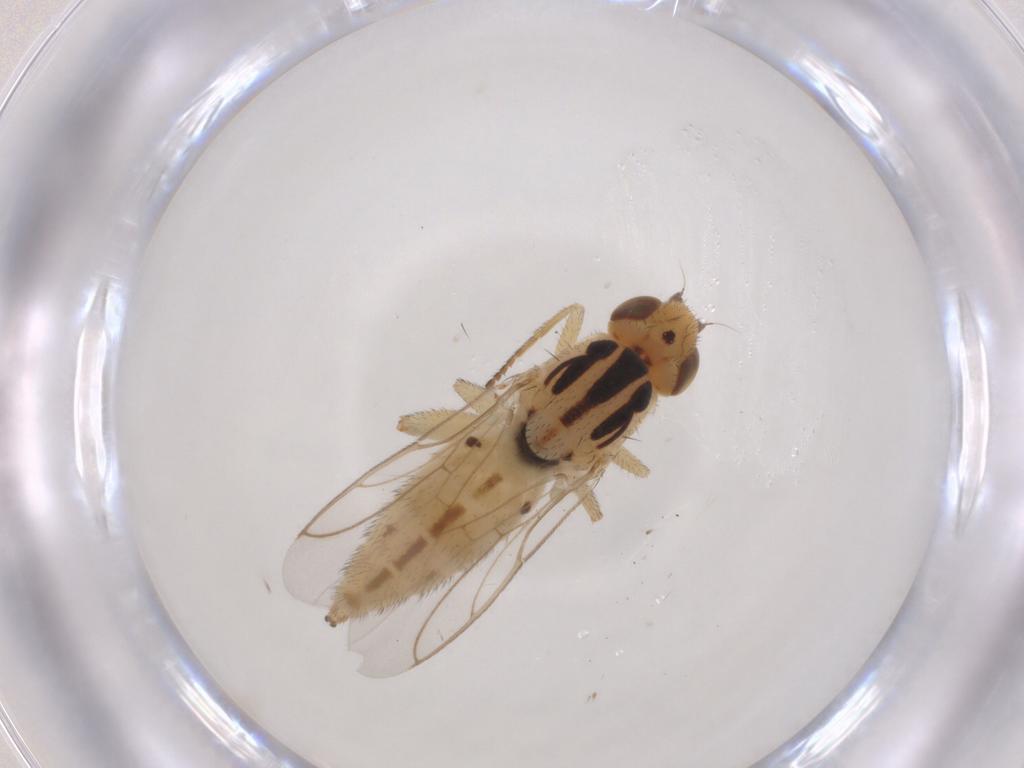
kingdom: Animalia
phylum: Arthropoda
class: Insecta
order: Diptera
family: Chloropidae
